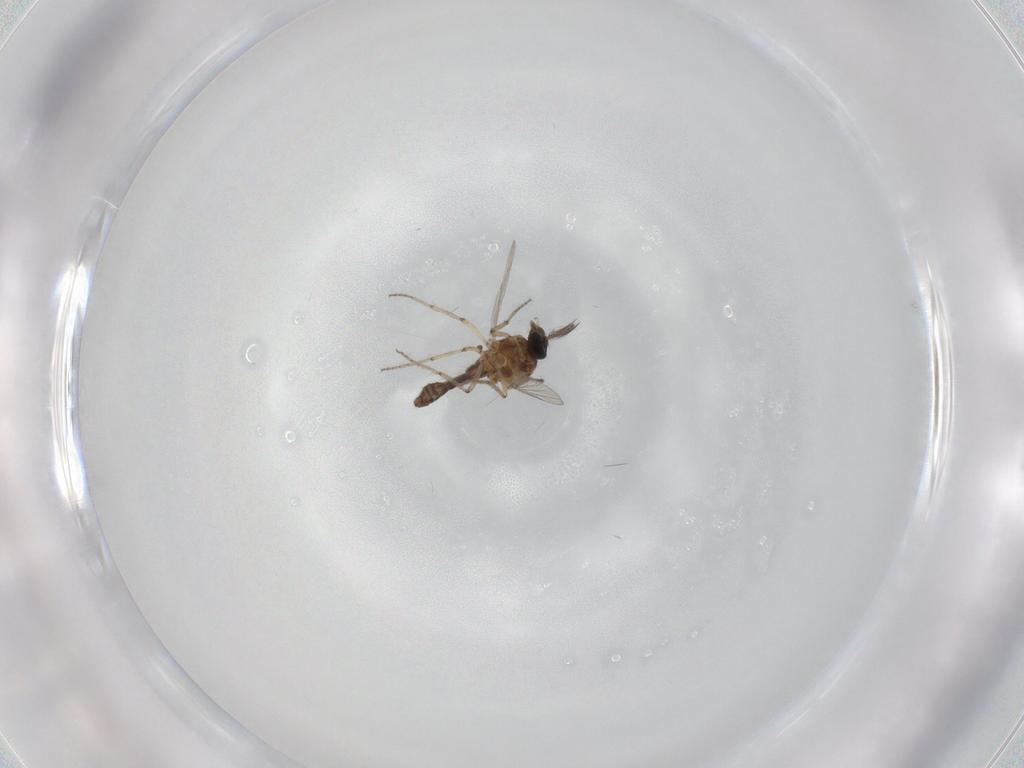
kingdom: Animalia
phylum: Arthropoda
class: Insecta
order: Diptera
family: Ceratopogonidae
